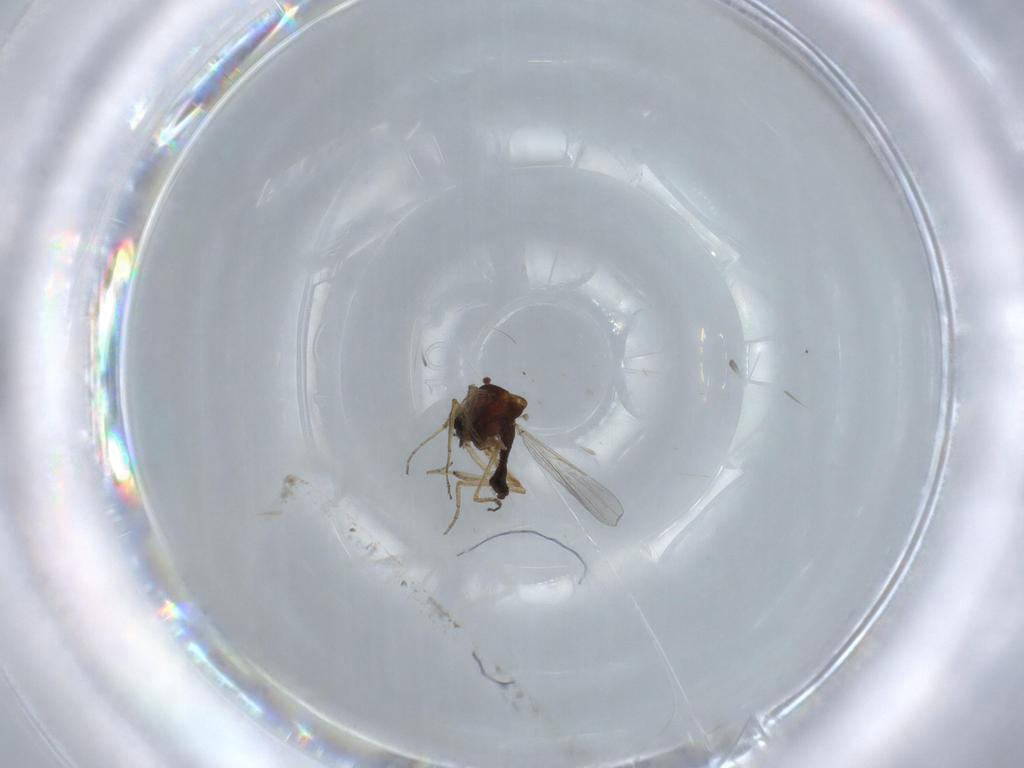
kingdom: Animalia
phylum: Arthropoda
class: Insecta
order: Diptera
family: Ceratopogonidae
